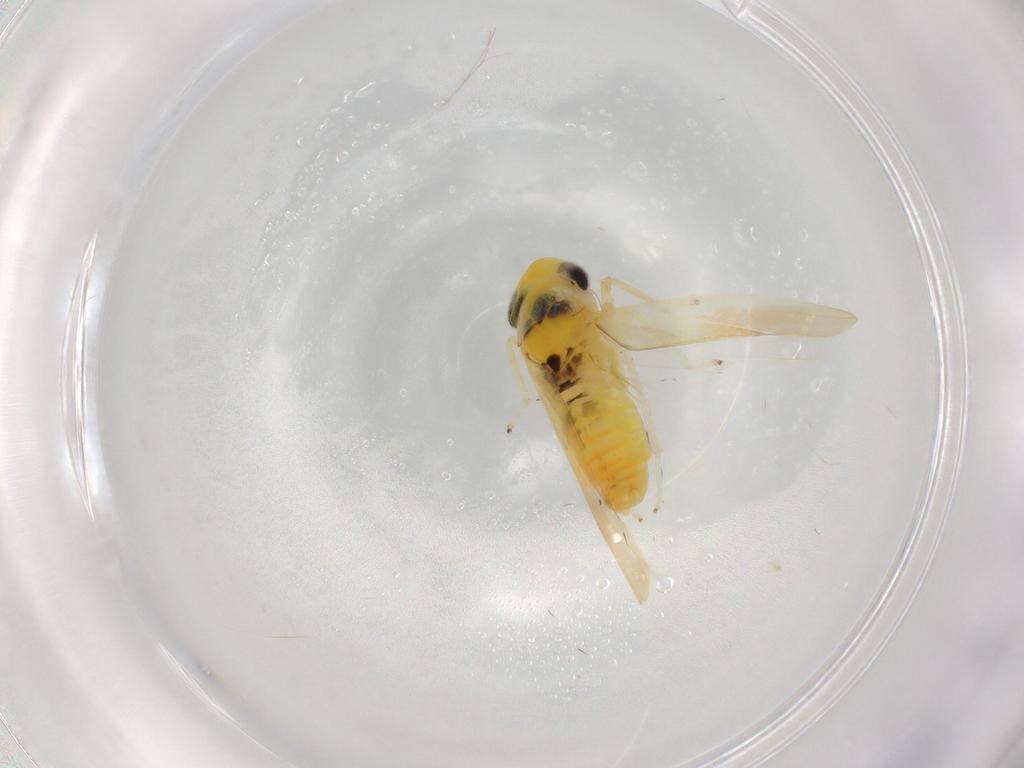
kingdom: Animalia
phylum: Arthropoda
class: Insecta
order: Hemiptera
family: Cicadellidae
